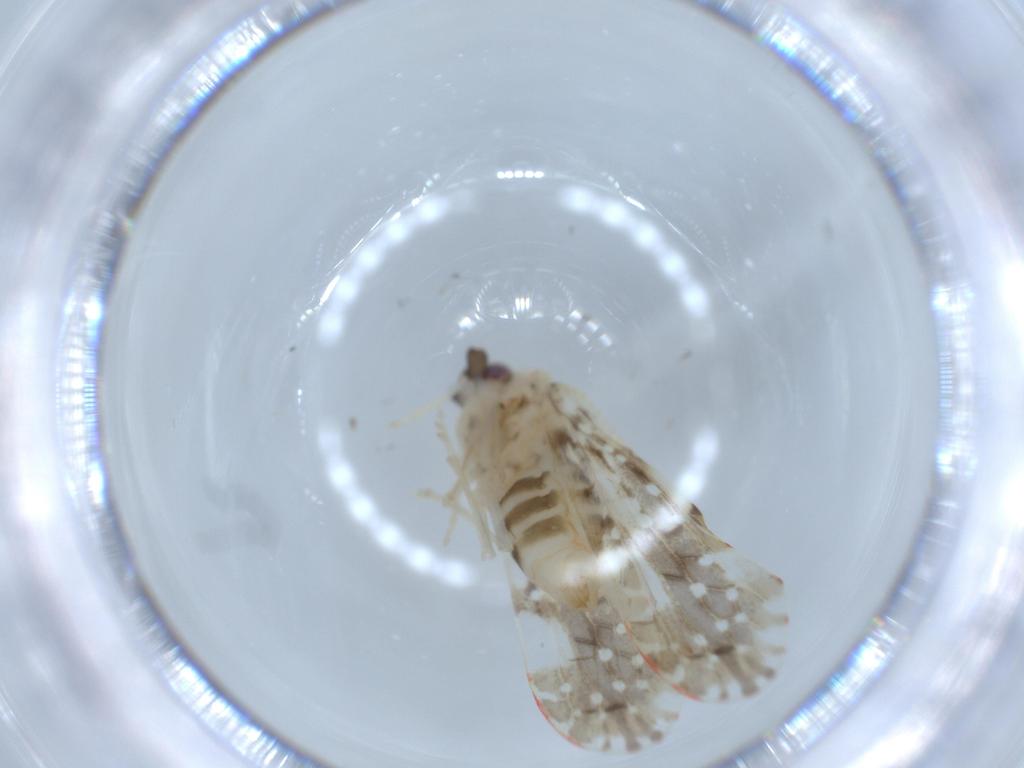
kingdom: Animalia
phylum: Arthropoda
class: Insecta
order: Hemiptera
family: Derbidae
